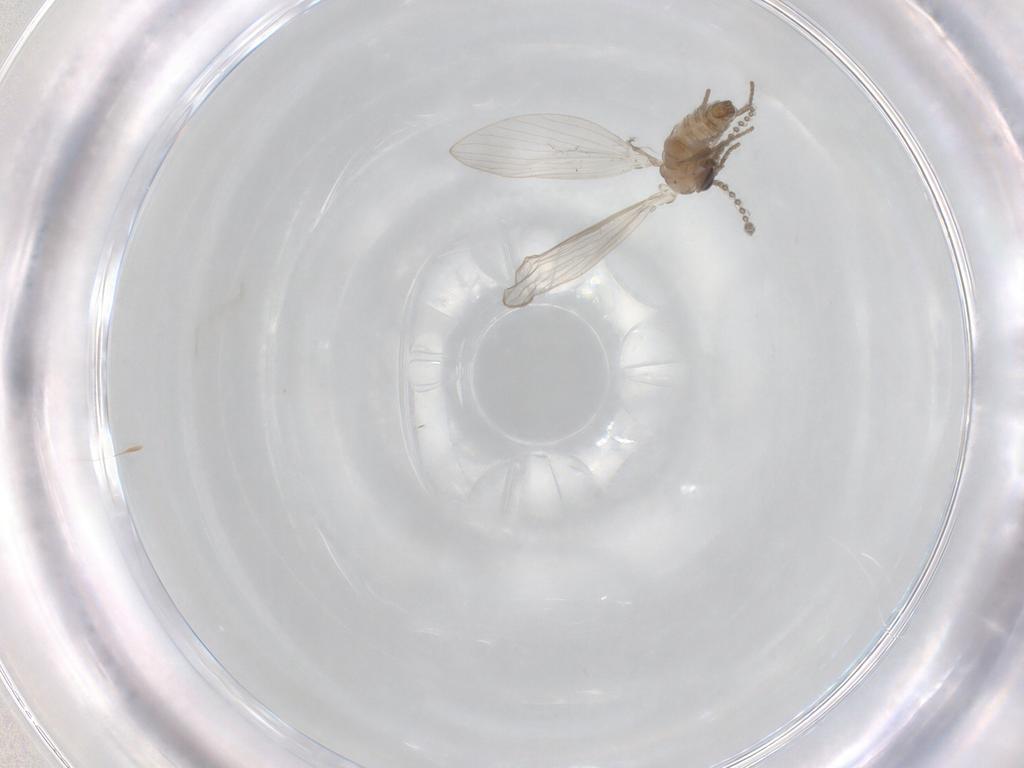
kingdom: Animalia
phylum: Arthropoda
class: Insecta
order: Diptera
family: Psychodidae
